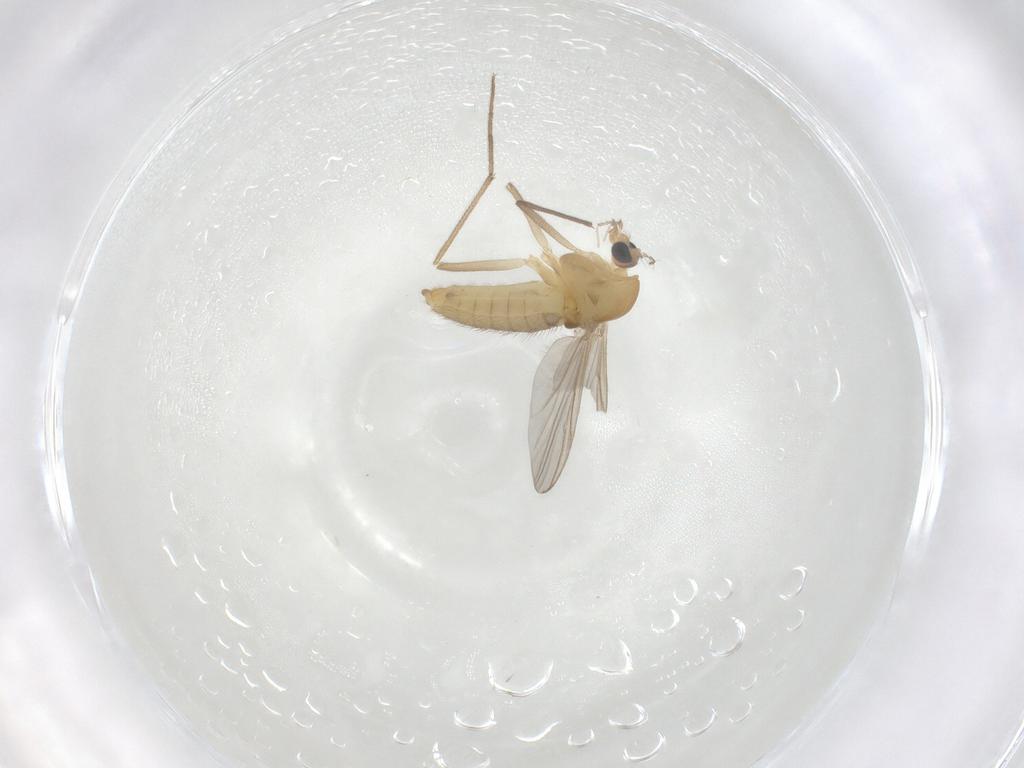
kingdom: Animalia
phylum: Arthropoda
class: Insecta
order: Diptera
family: Chironomidae
